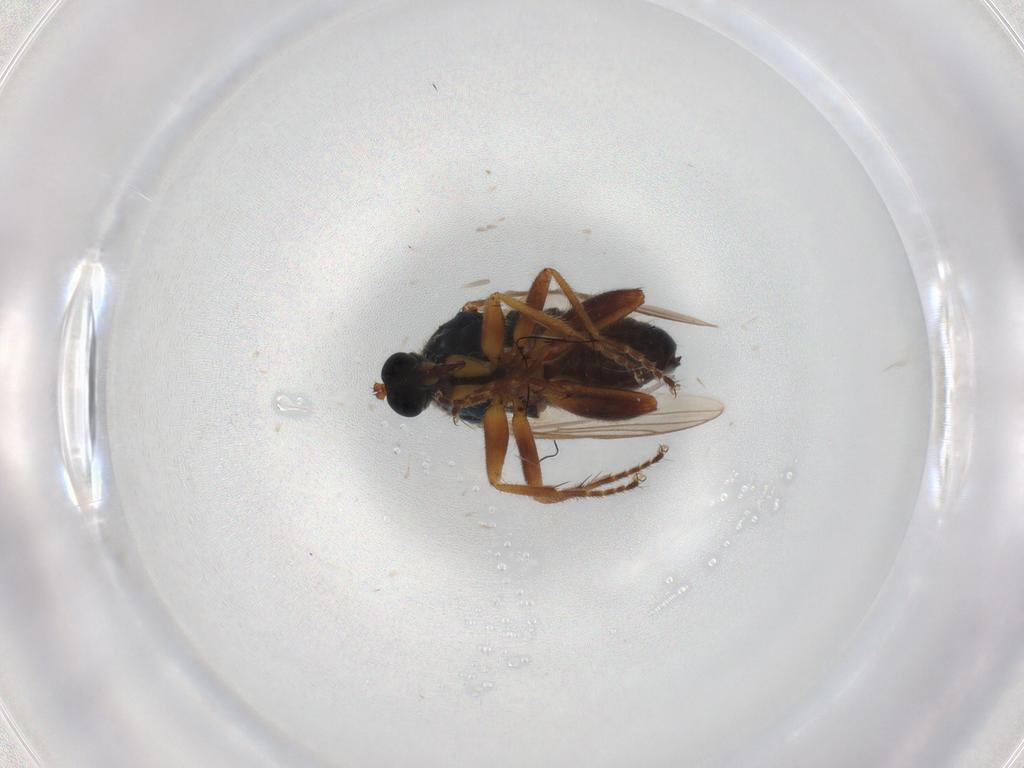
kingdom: Animalia
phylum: Arthropoda
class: Insecta
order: Diptera
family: Hybotidae
